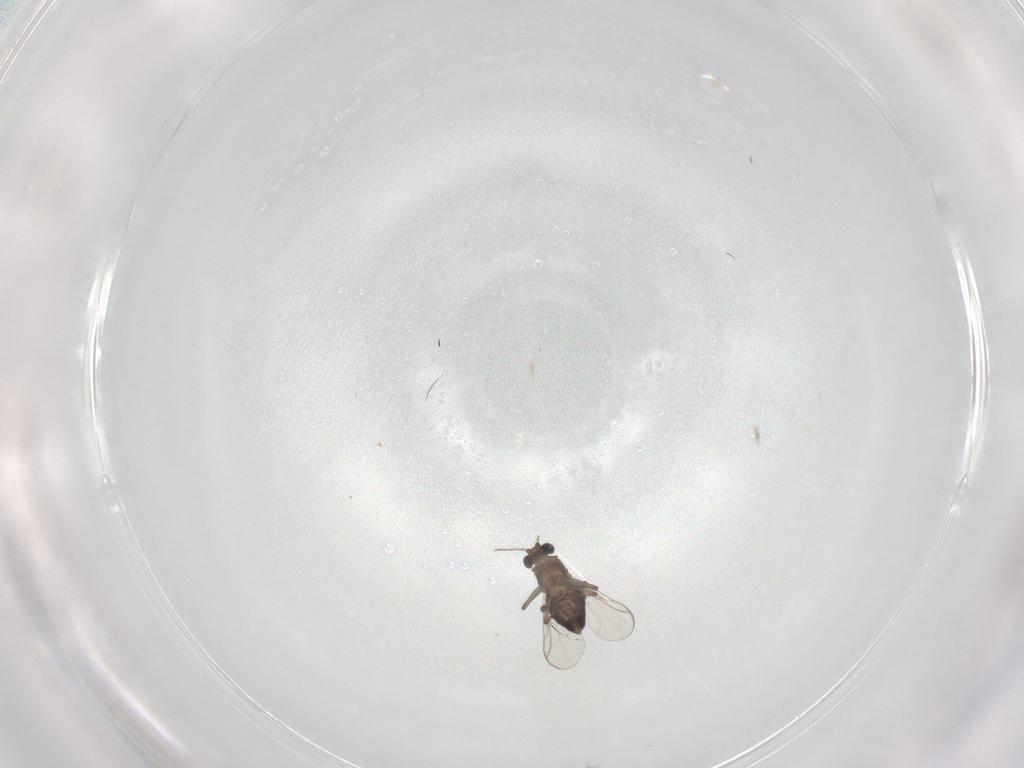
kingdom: Animalia
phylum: Arthropoda
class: Insecta
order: Diptera
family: Chironomidae
